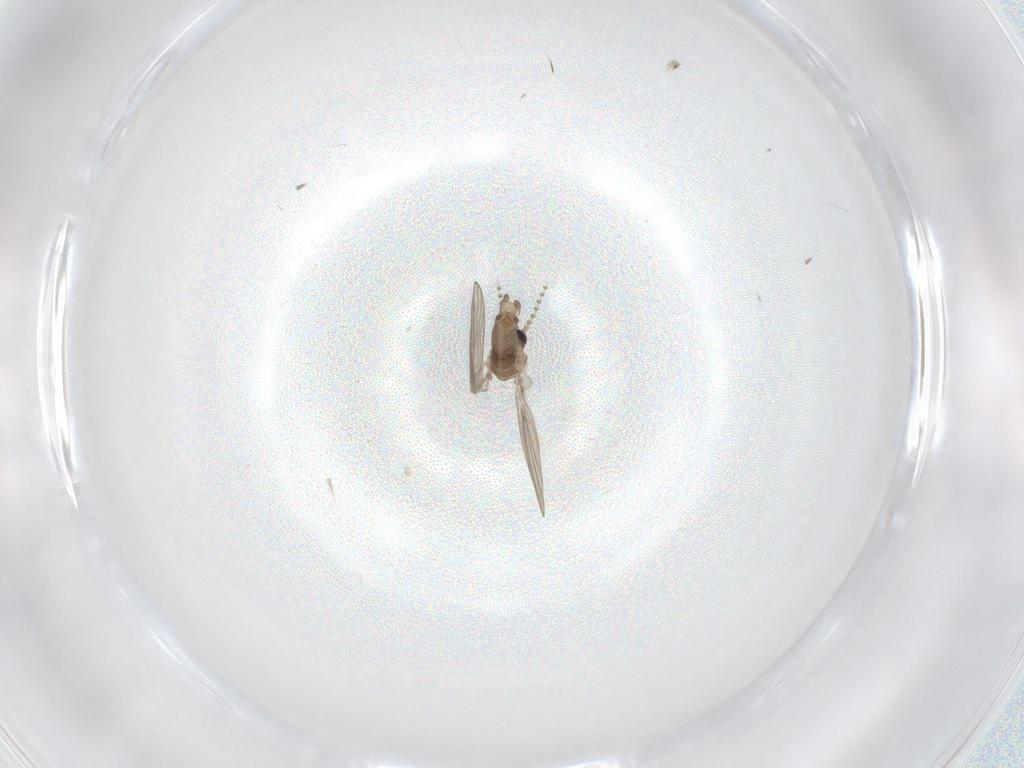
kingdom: Animalia
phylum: Arthropoda
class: Insecta
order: Diptera
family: Psychodidae
